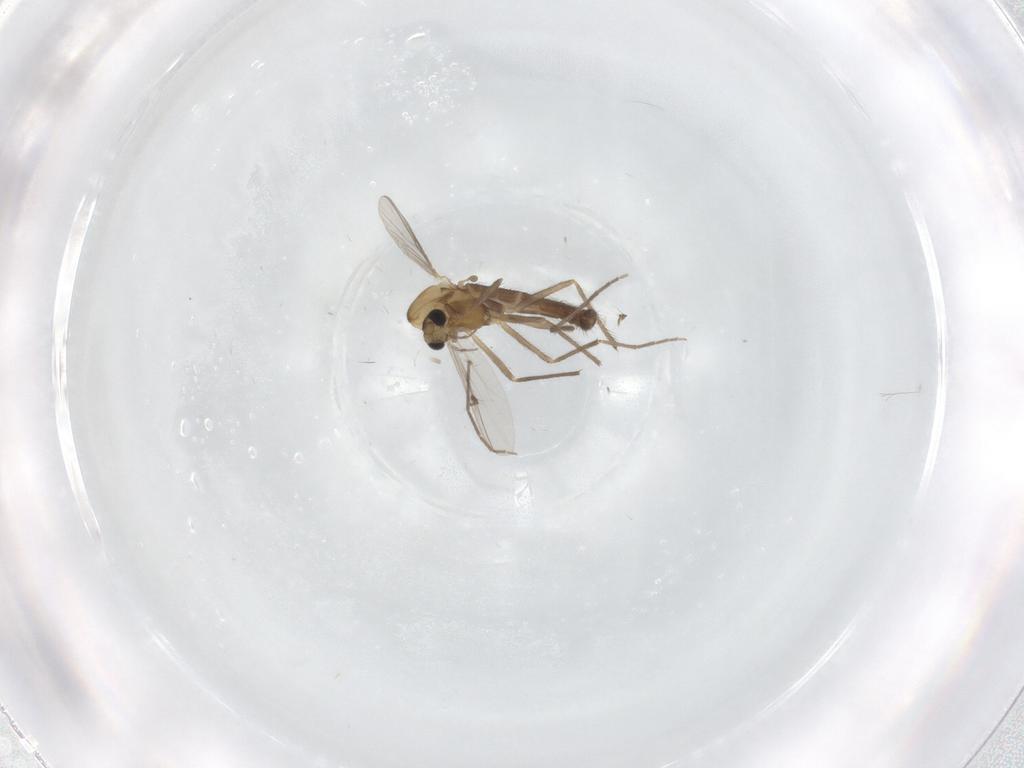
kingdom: Animalia
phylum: Arthropoda
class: Insecta
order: Diptera
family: Chironomidae
